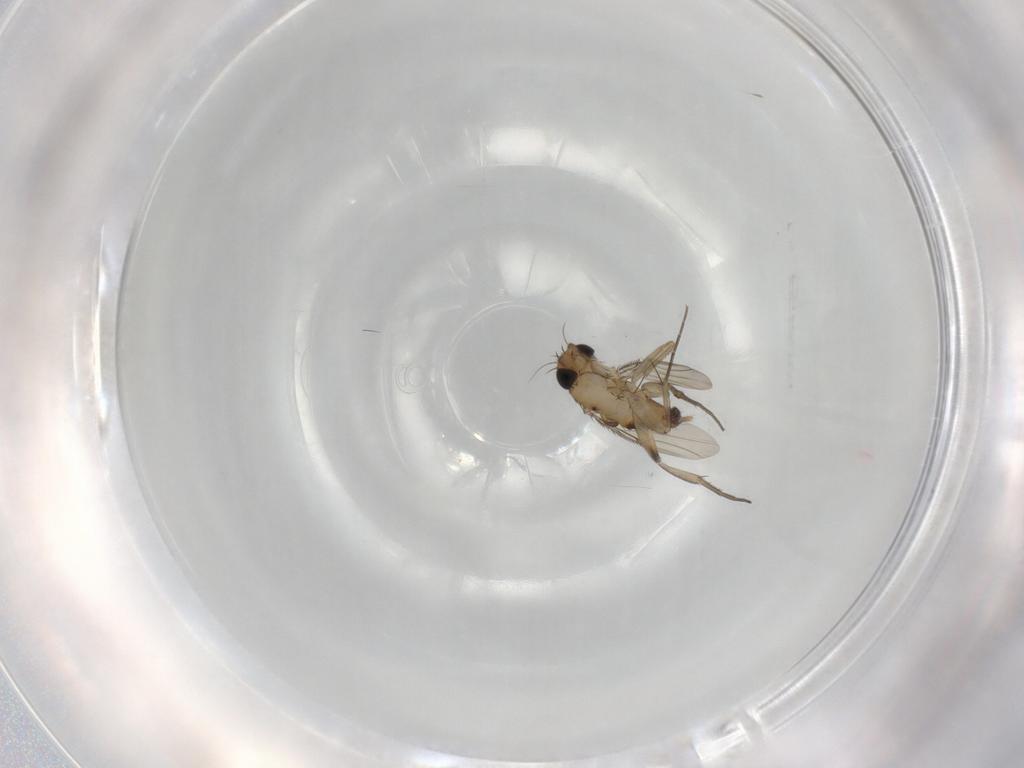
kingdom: Animalia
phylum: Arthropoda
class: Insecta
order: Diptera
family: Phoridae
